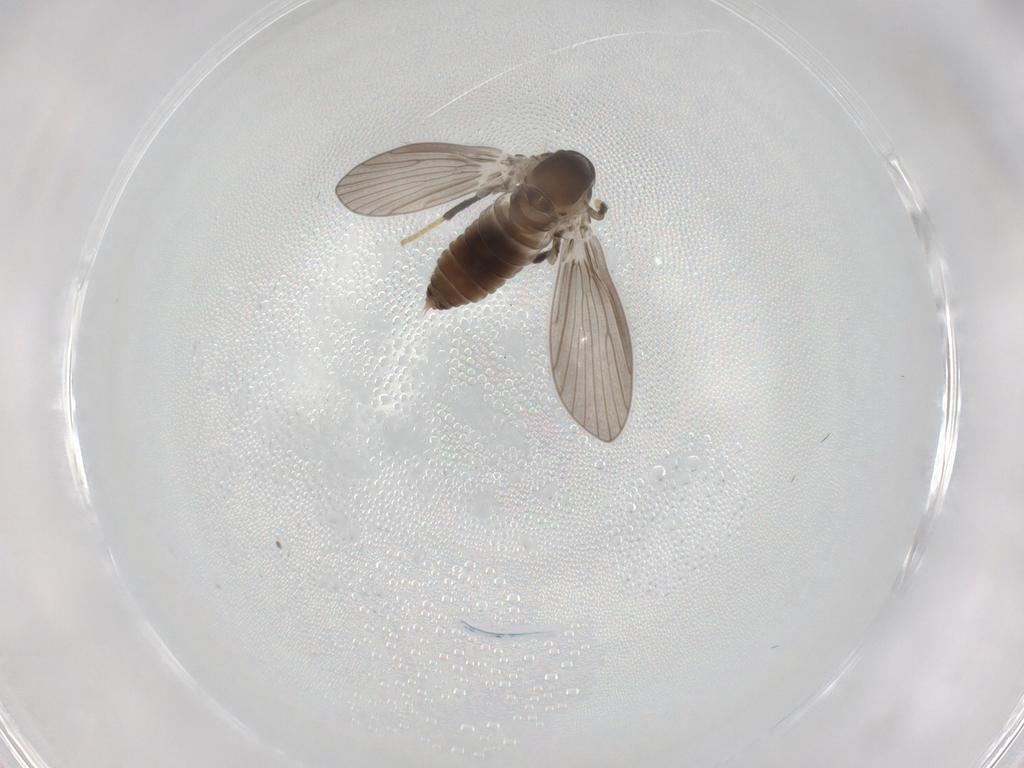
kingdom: Animalia
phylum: Arthropoda
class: Insecta
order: Diptera
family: Psychodidae
